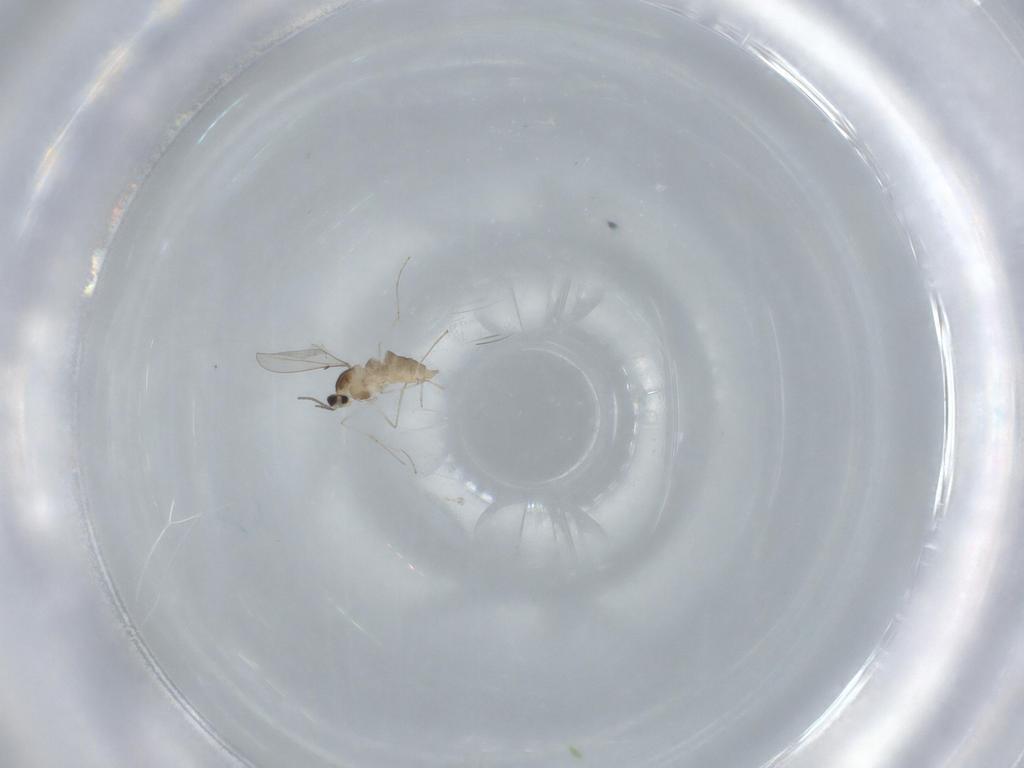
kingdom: Animalia
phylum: Arthropoda
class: Insecta
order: Diptera
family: Cecidomyiidae
